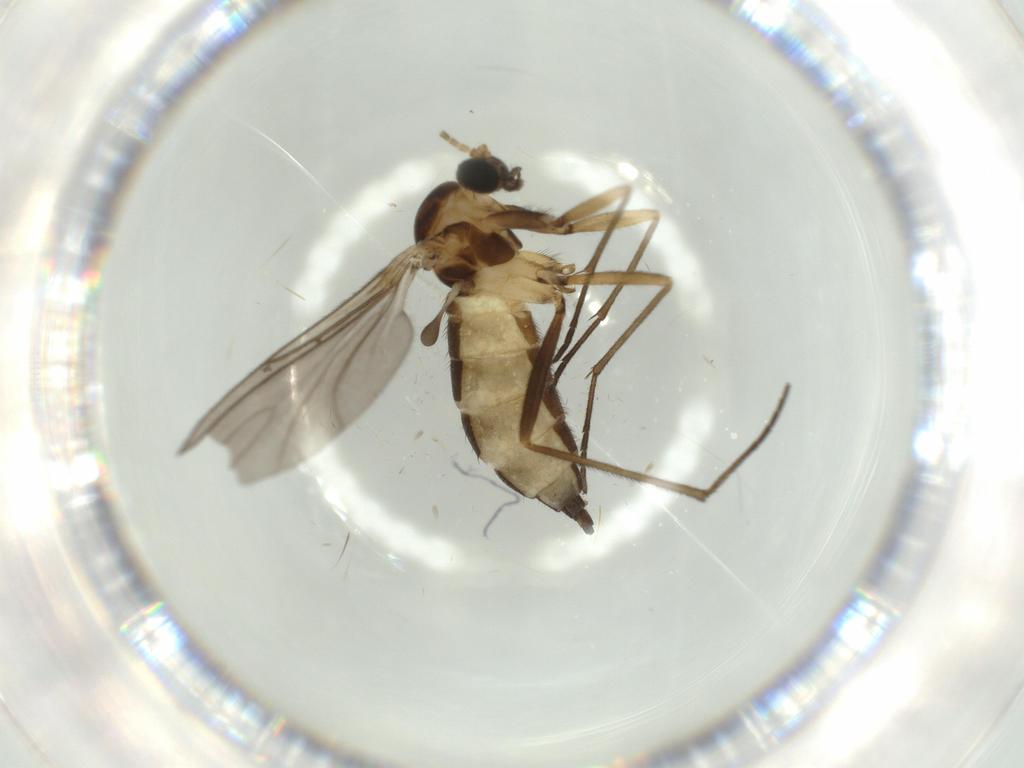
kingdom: Animalia
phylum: Arthropoda
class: Insecta
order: Diptera
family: Sciaridae
